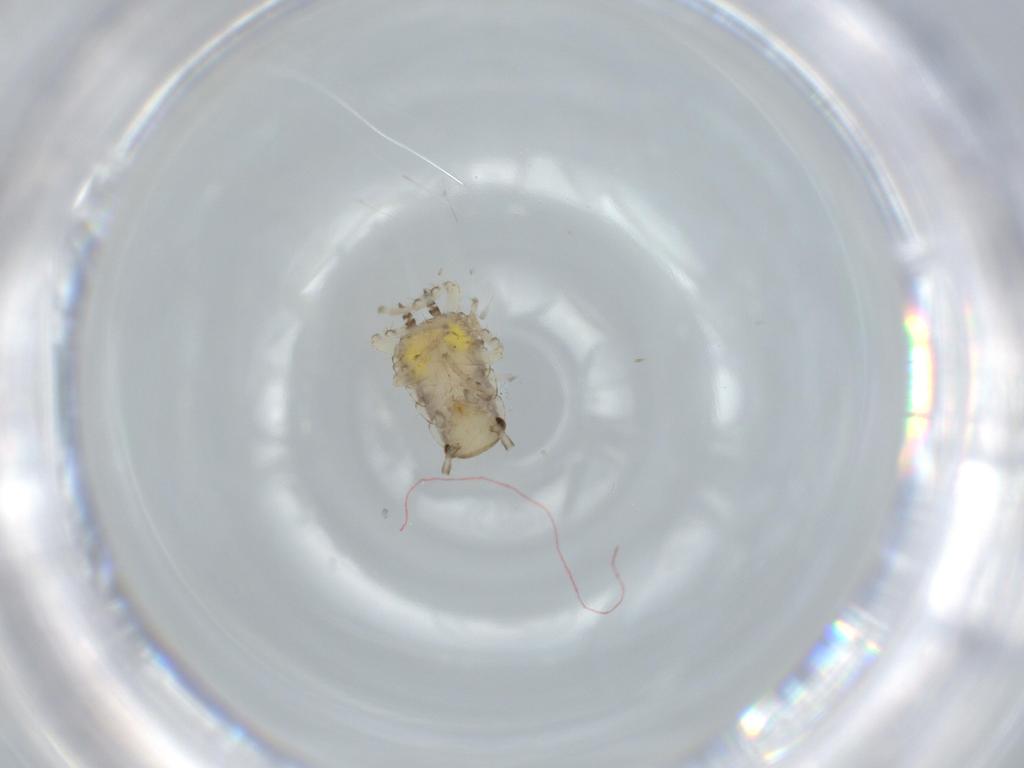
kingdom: Animalia
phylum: Arthropoda
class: Insecta
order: Blattodea
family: Ectobiidae
